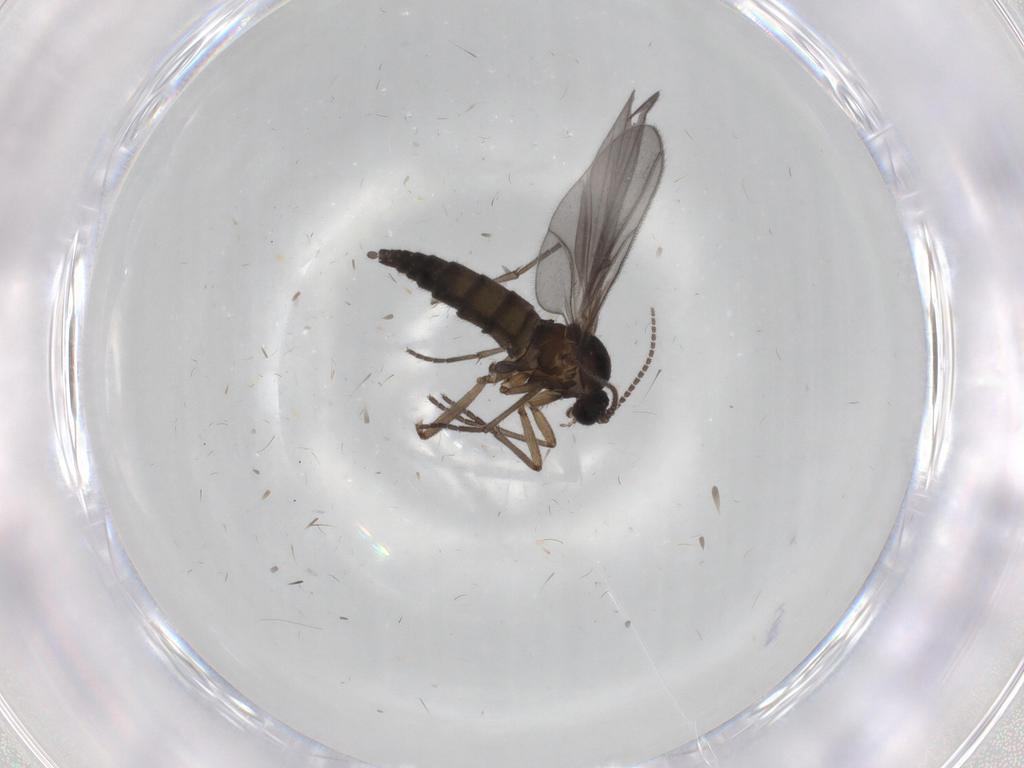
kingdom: Animalia
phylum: Arthropoda
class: Insecta
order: Diptera
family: Sciaridae
